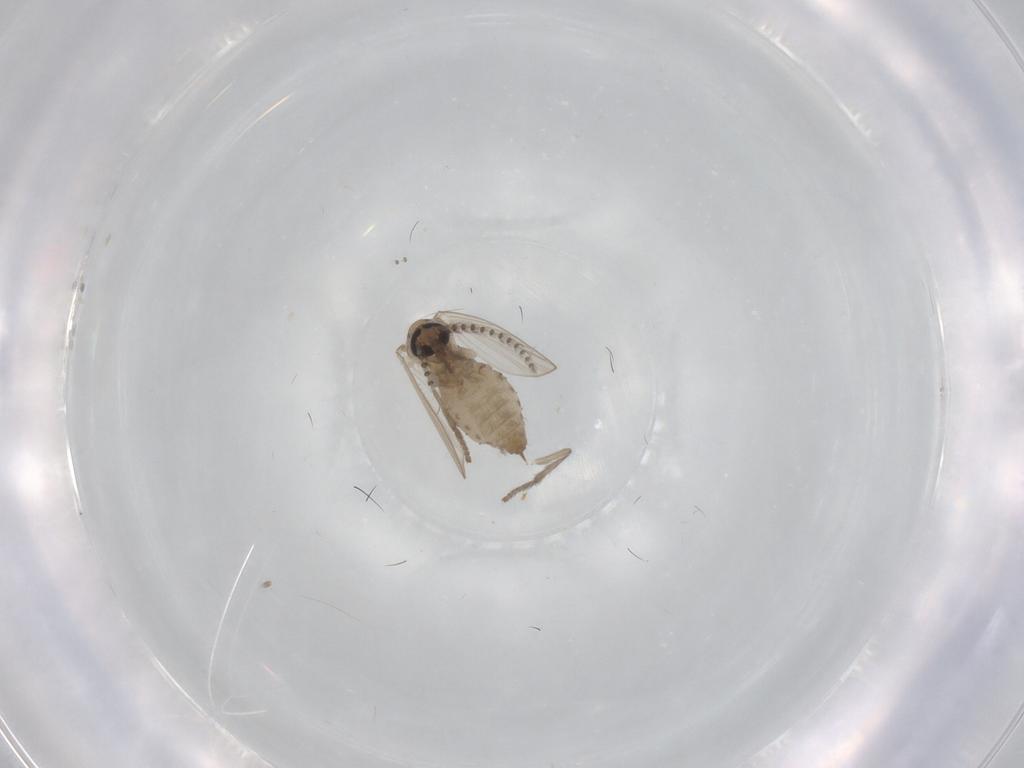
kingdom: Animalia
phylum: Arthropoda
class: Insecta
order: Diptera
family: Psychodidae
